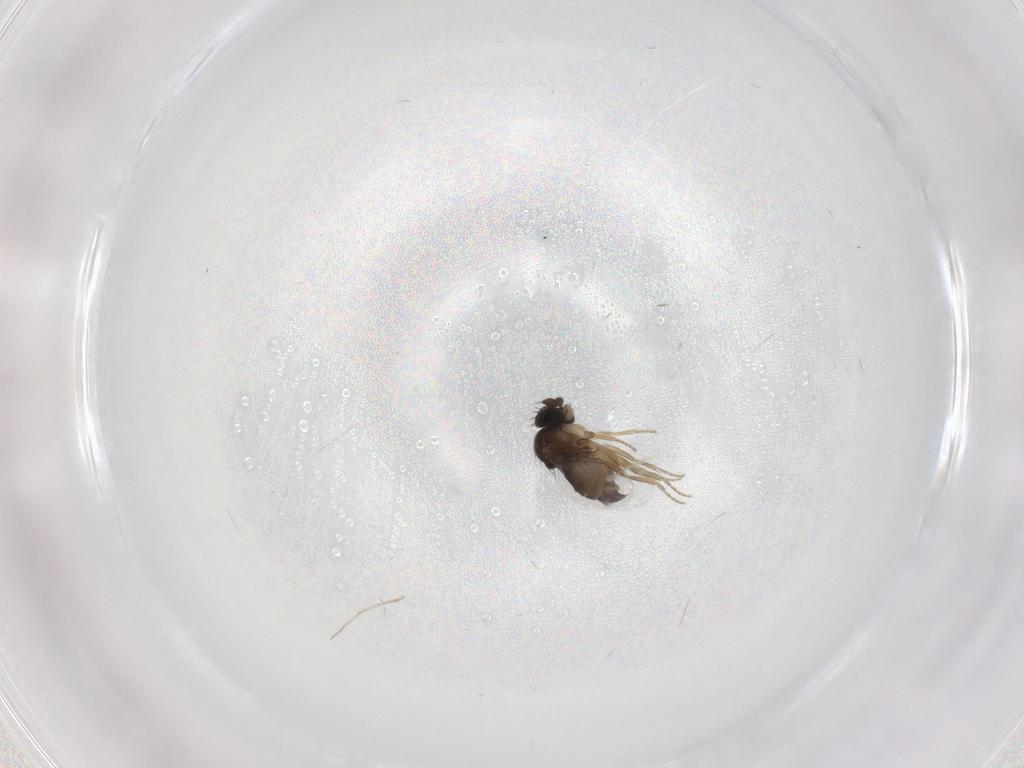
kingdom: Animalia
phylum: Arthropoda
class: Insecta
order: Diptera
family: Phoridae
